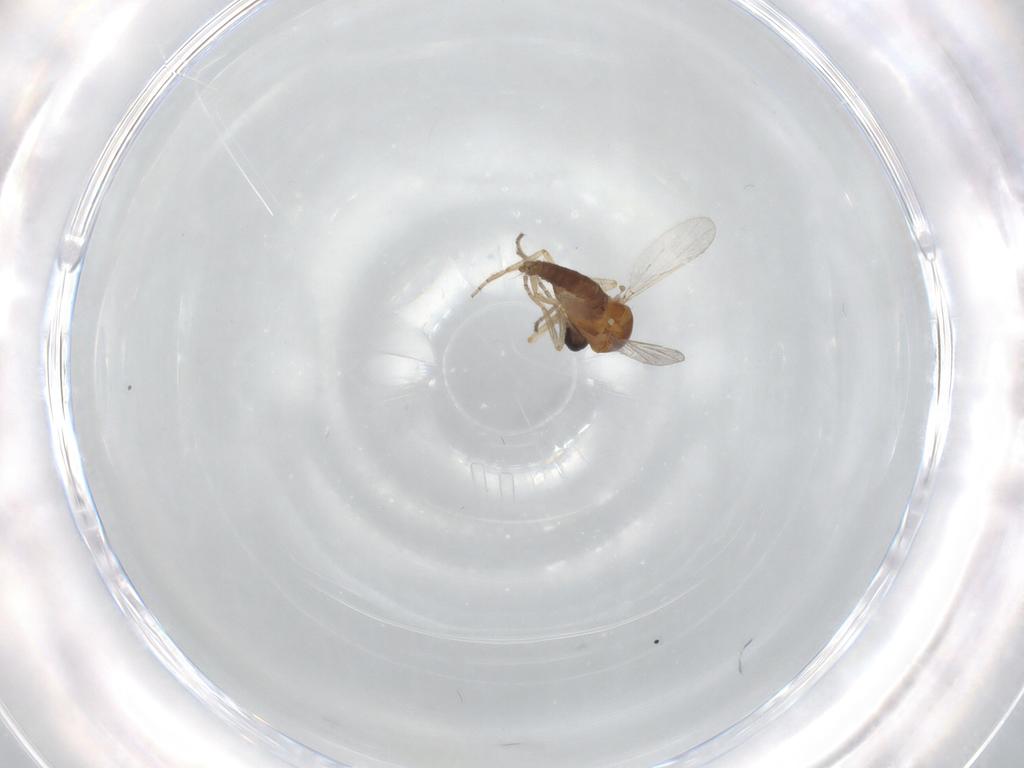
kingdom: Animalia
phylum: Arthropoda
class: Insecta
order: Diptera
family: Ceratopogonidae
